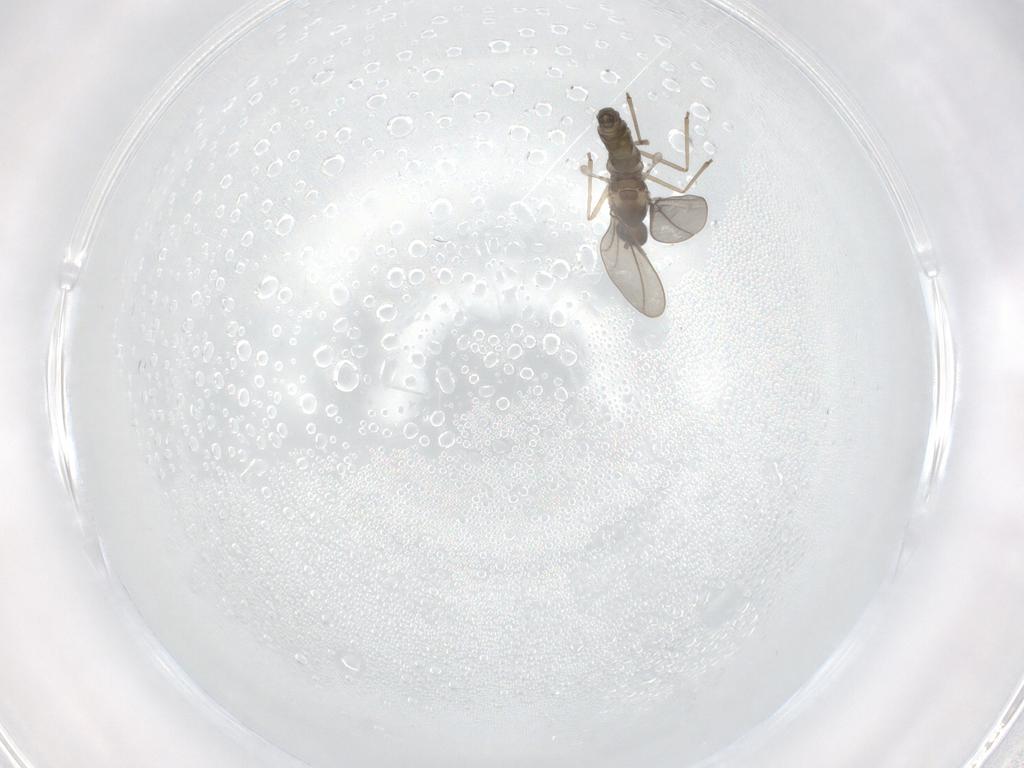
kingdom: Animalia
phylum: Arthropoda
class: Insecta
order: Diptera
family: Cecidomyiidae
